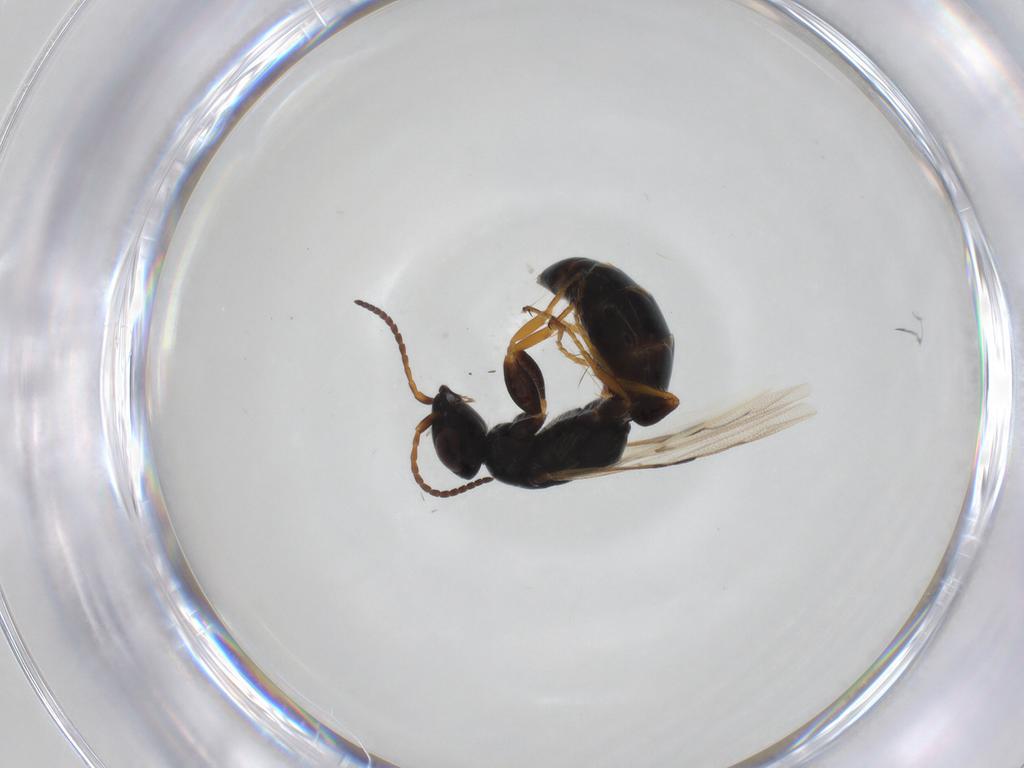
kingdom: Animalia
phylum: Arthropoda
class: Insecta
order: Hymenoptera
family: Bethylidae
